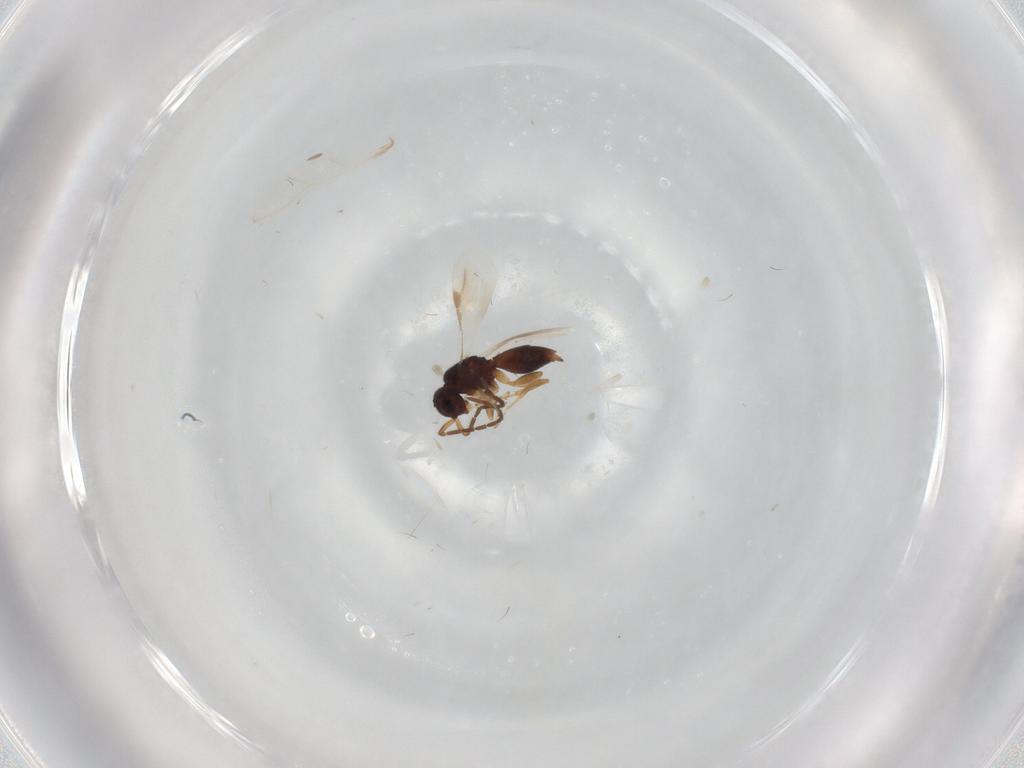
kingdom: Animalia
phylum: Arthropoda
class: Insecta
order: Hymenoptera
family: Megaspilidae
